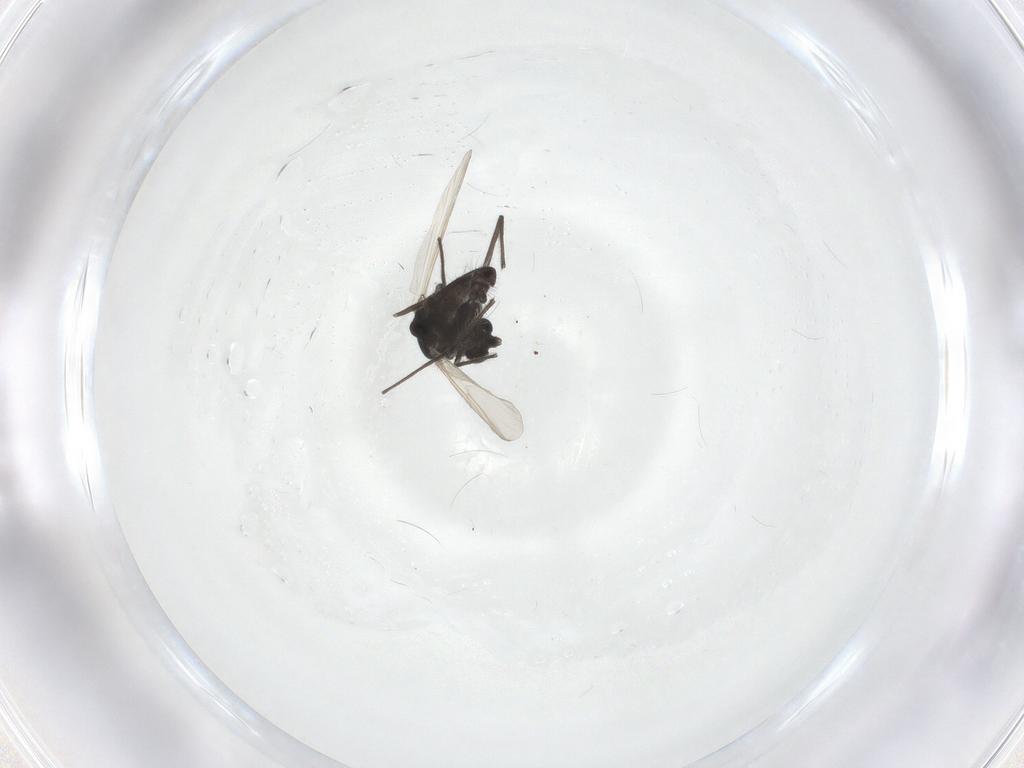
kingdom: Animalia
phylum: Arthropoda
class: Insecta
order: Diptera
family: Chironomidae
